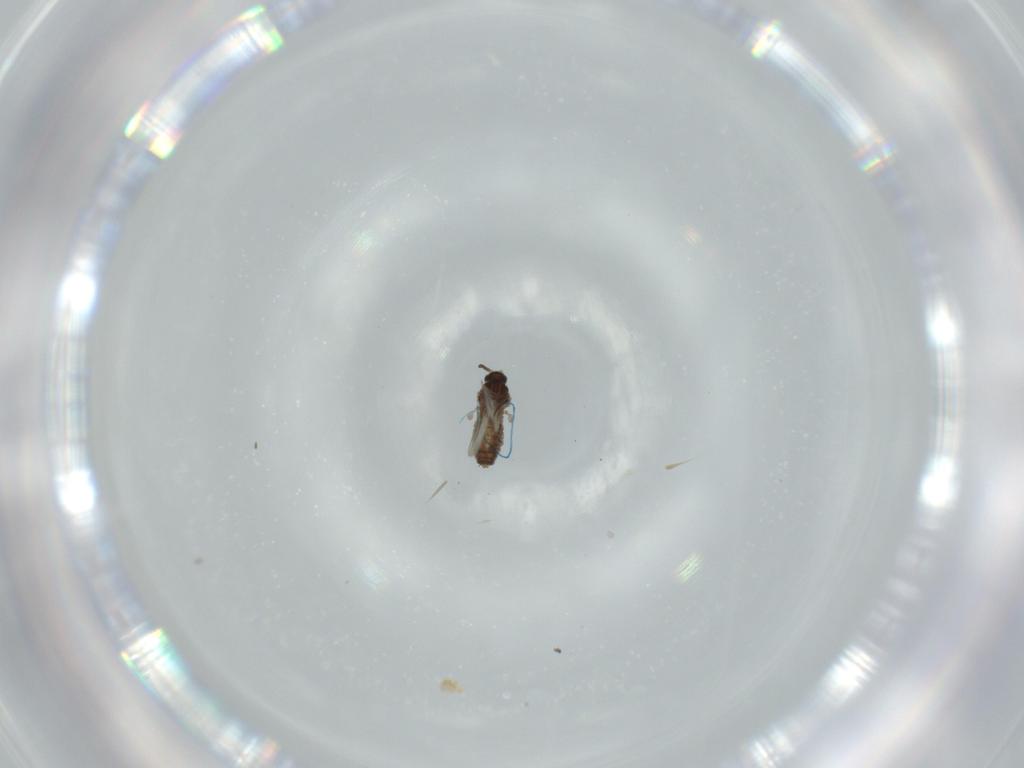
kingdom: Animalia
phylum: Arthropoda
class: Insecta
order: Diptera
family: Cecidomyiidae
